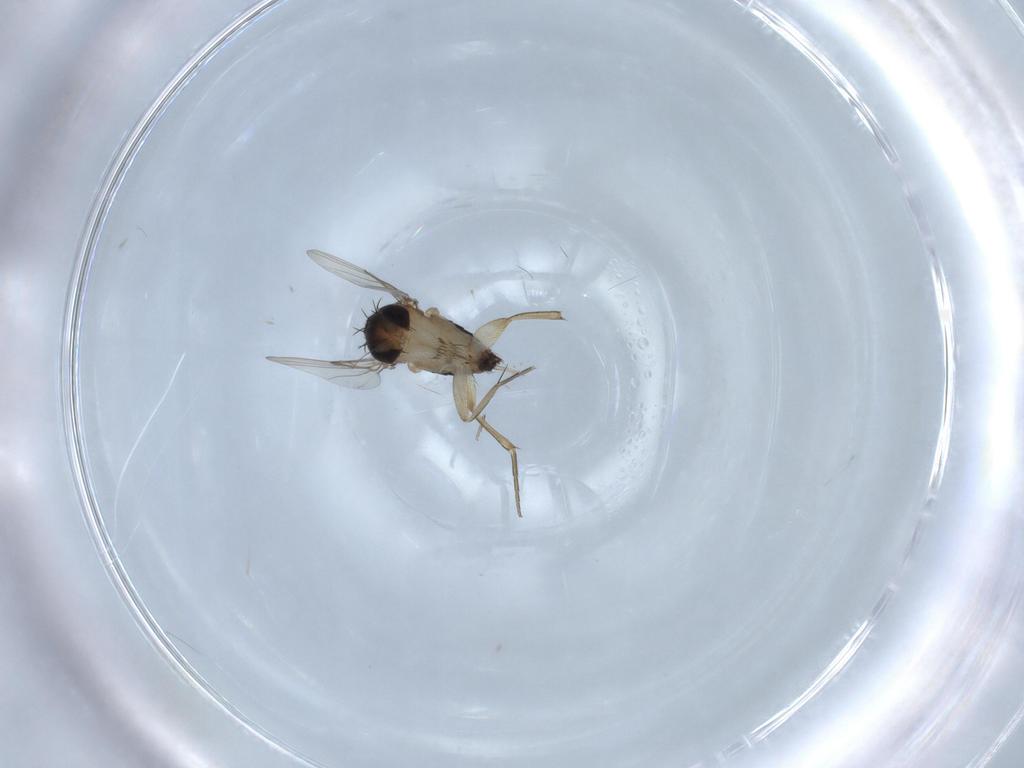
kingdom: Animalia
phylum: Arthropoda
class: Insecta
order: Diptera
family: Phoridae
